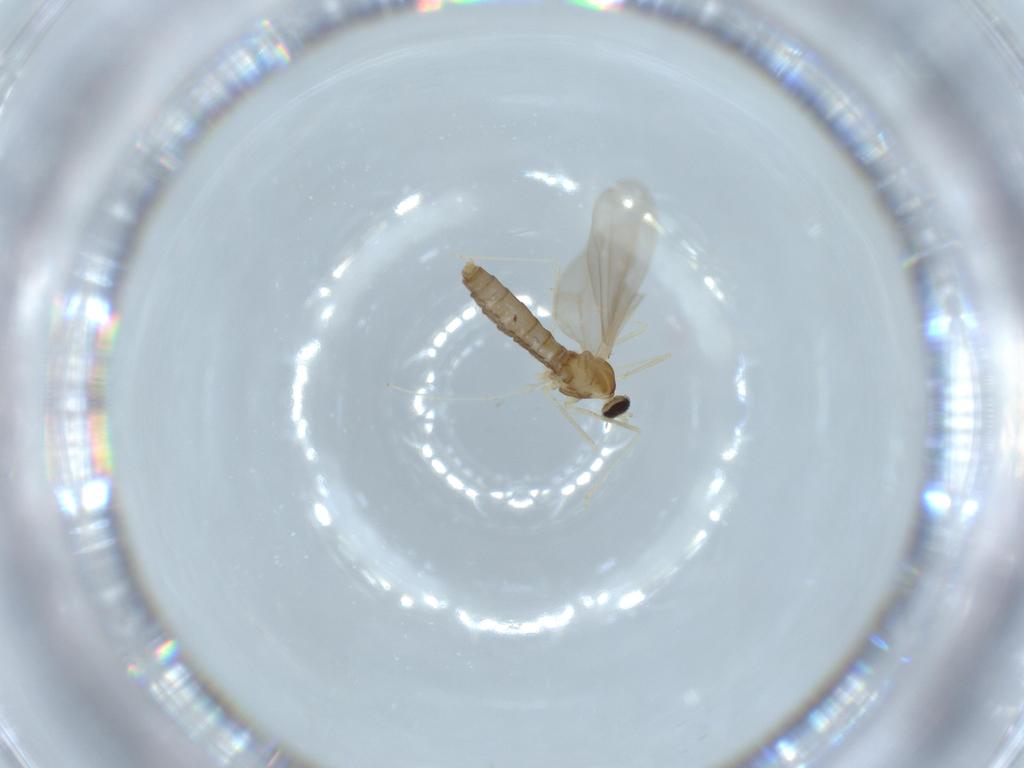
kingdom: Animalia
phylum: Arthropoda
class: Insecta
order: Diptera
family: Cecidomyiidae
